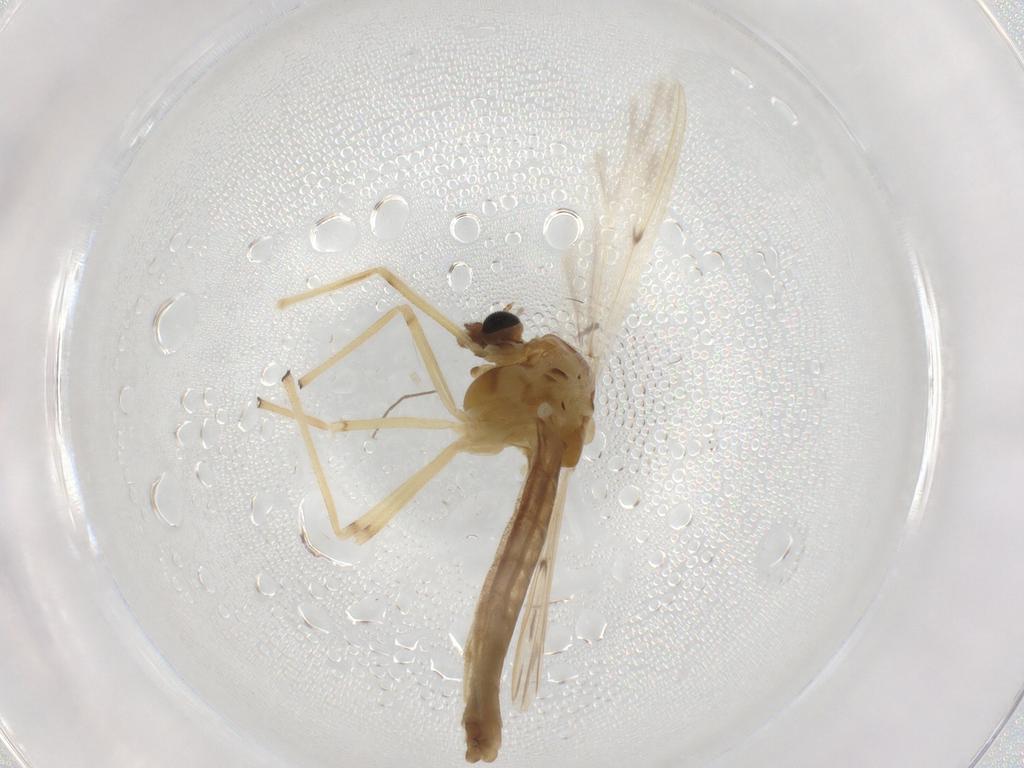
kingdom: Animalia
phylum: Arthropoda
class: Insecta
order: Diptera
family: Chironomidae
